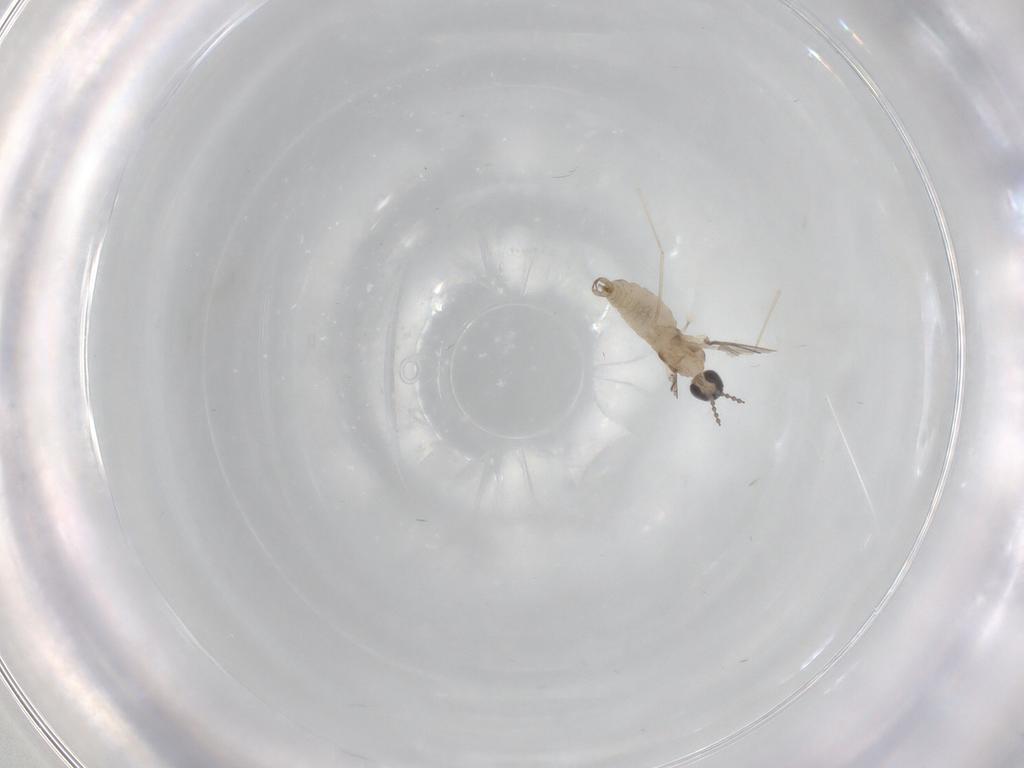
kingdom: Animalia
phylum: Arthropoda
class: Insecta
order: Diptera
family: Cecidomyiidae
